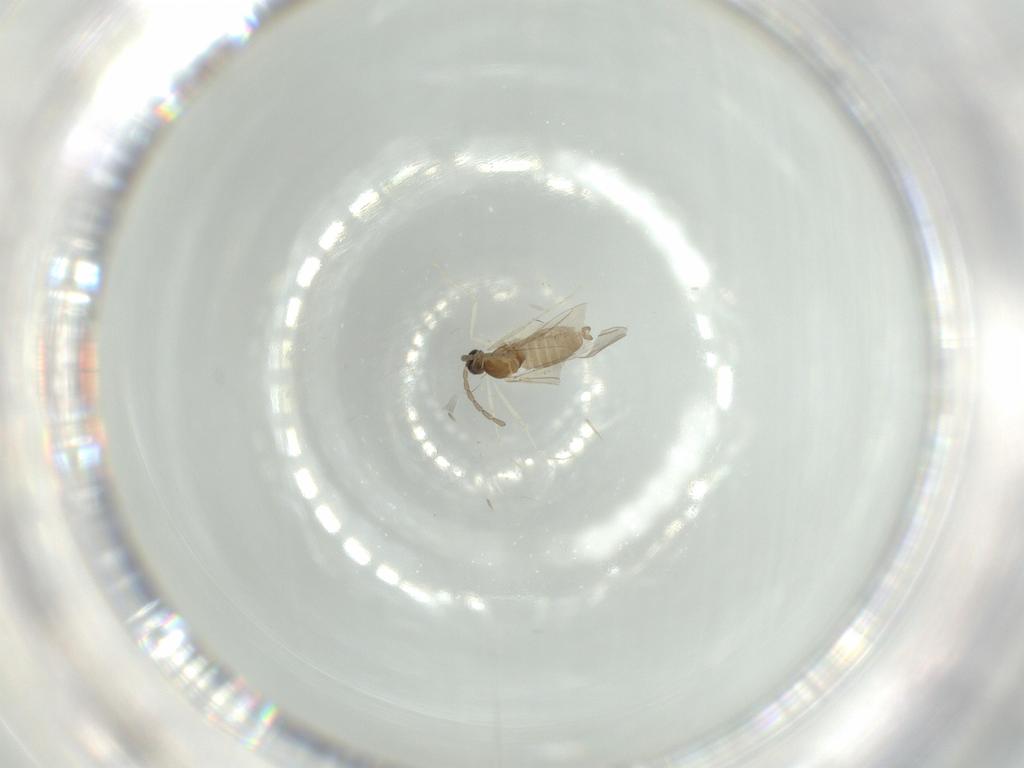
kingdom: Animalia
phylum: Arthropoda
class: Insecta
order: Diptera
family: Cecidomyiidae
